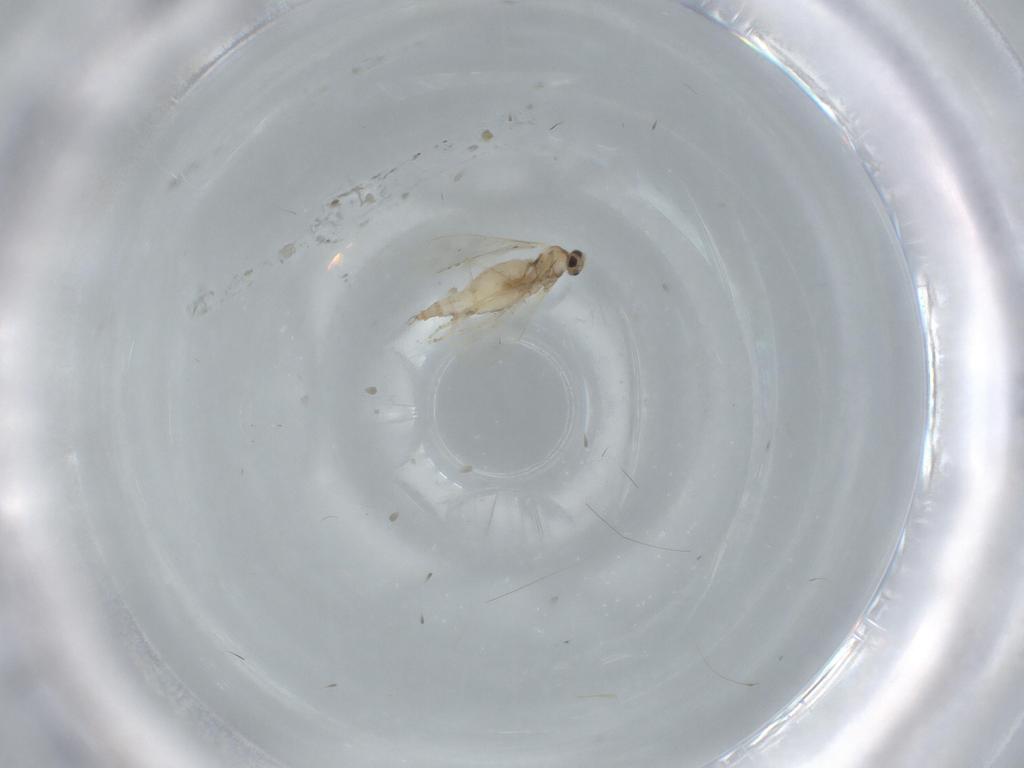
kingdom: Animalia
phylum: Arthropoda
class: Insecta
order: Diptera
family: Cecidomyiidae
